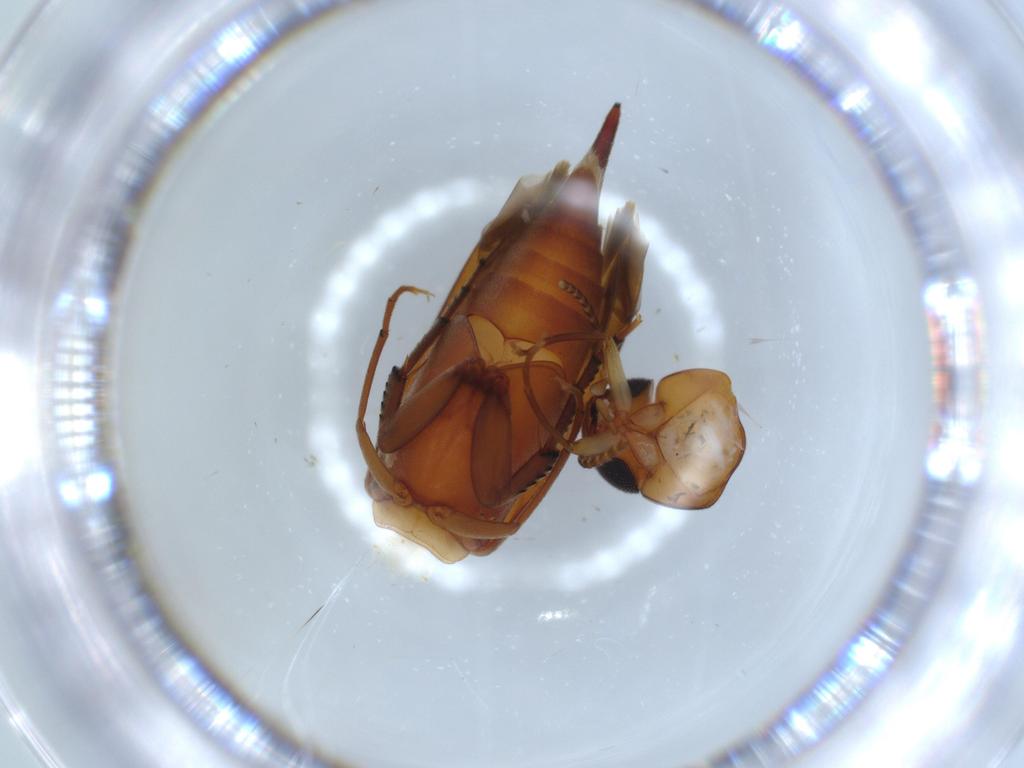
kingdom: Animalia
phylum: Arthropoda
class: Insecta
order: Coleoptera
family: Mordellidae
